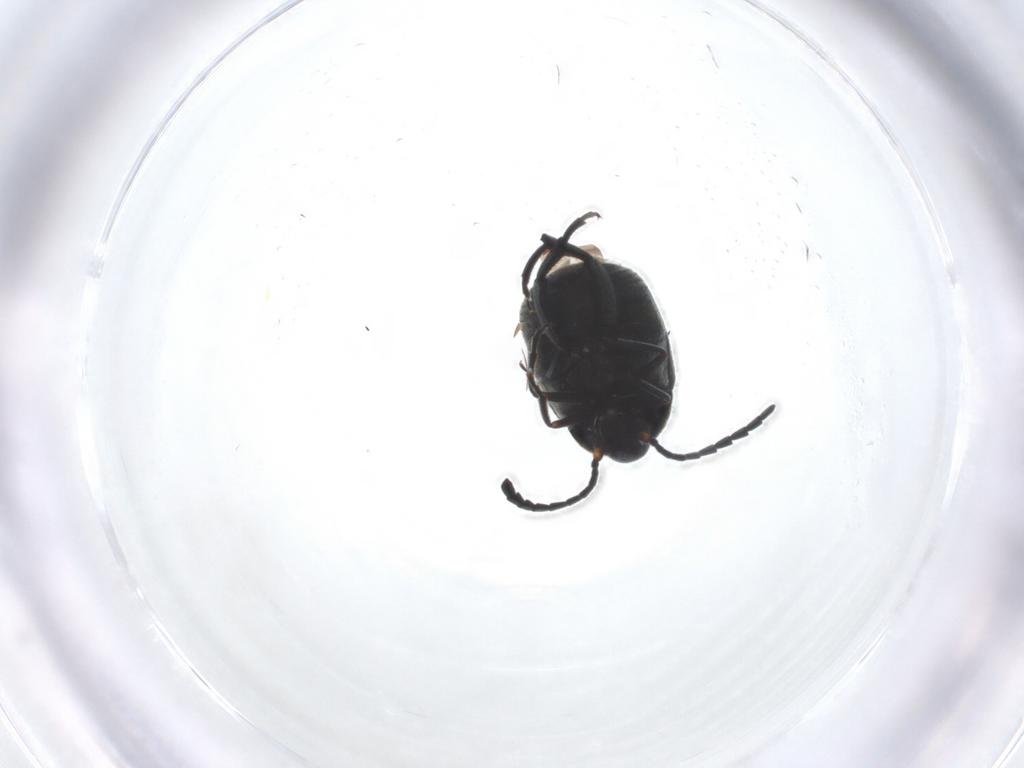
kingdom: Animalia
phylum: Arthropoda
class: Insecta
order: Coleoptera
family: Chrysomelidae
